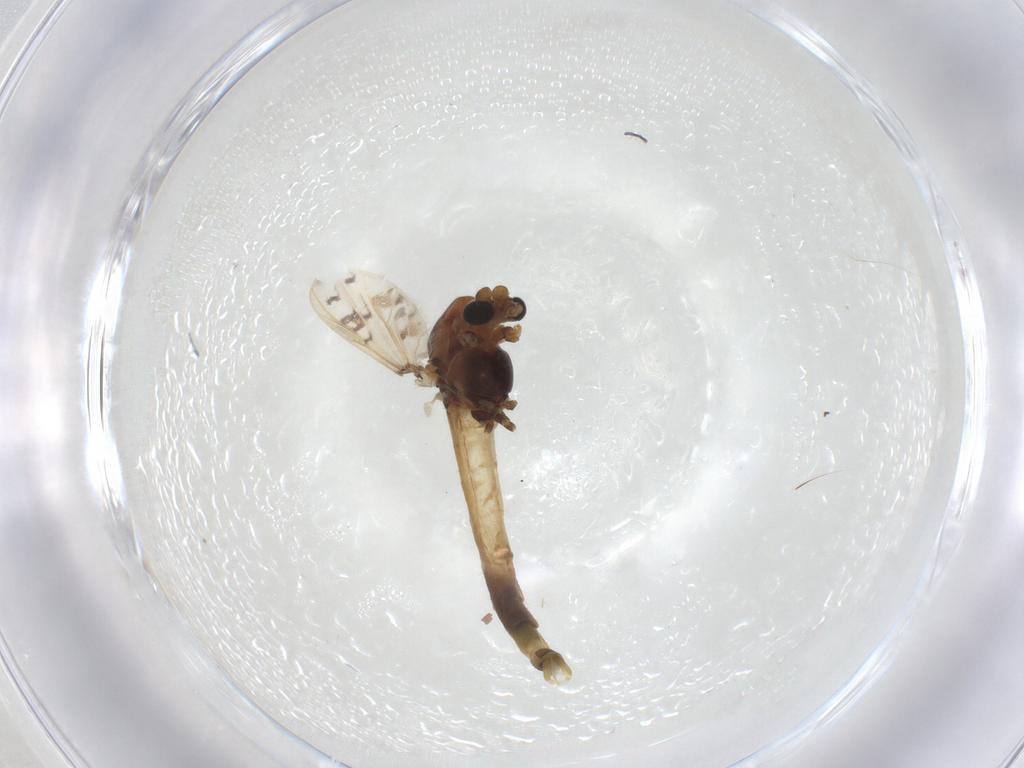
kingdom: Animalia
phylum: Arthropoda
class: Insecta
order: Diptera
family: Chironomidae
